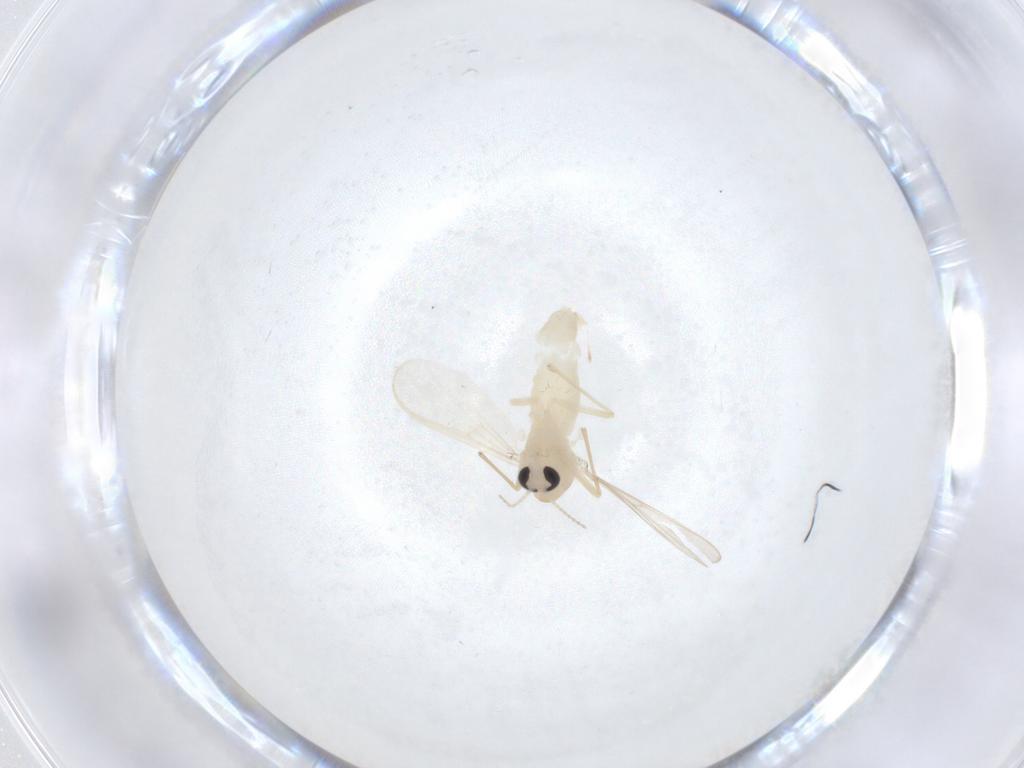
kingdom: Animalia
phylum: Arthropoda
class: Insecta
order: Diptera
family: Chironomidae
